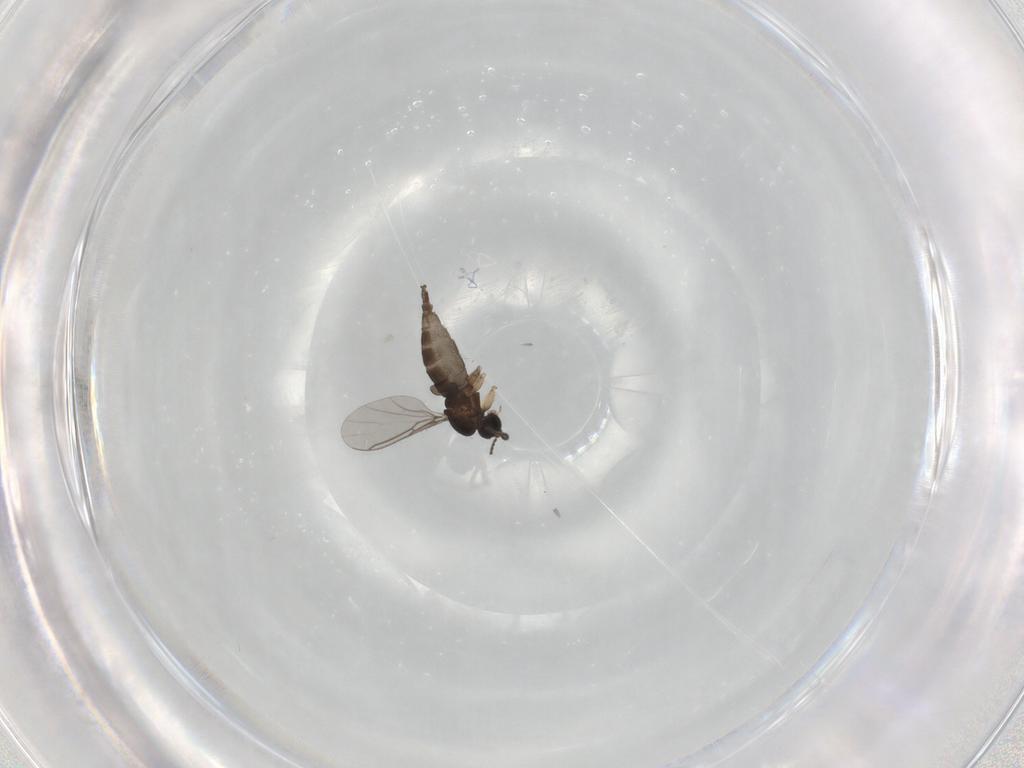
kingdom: Animalia
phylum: Arthropoda
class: Insecta
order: Diptera
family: Sciaridae
